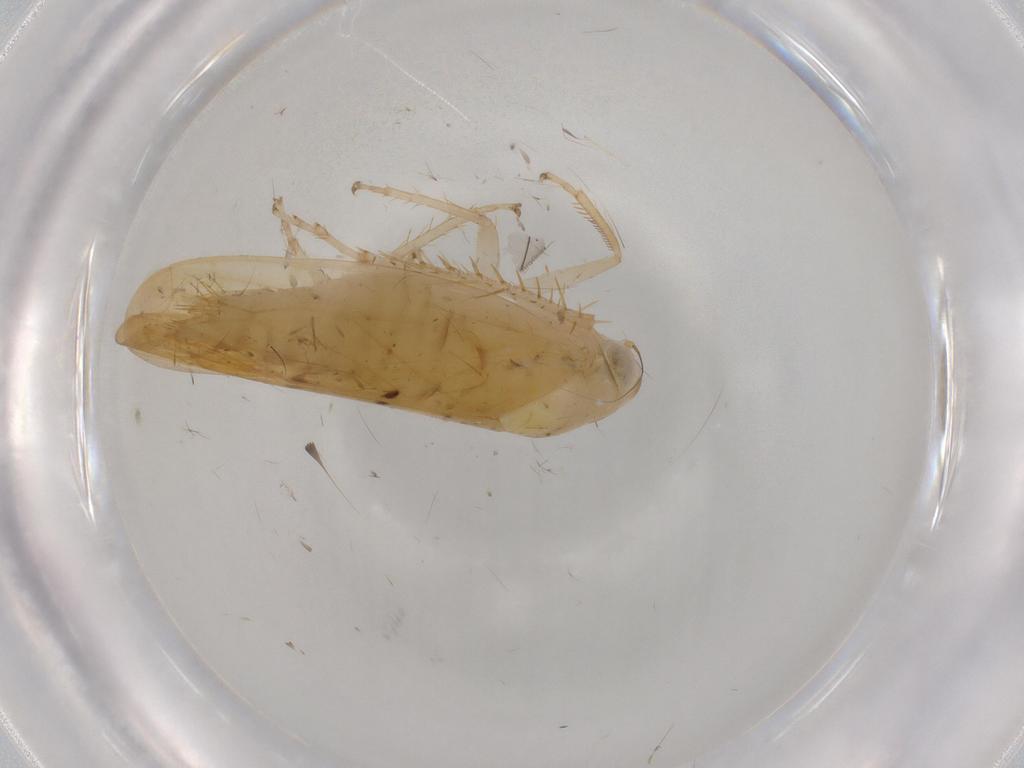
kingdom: Animalia
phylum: Arthropoda
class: Insecta
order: Hemiptera
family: Cicadellidae
